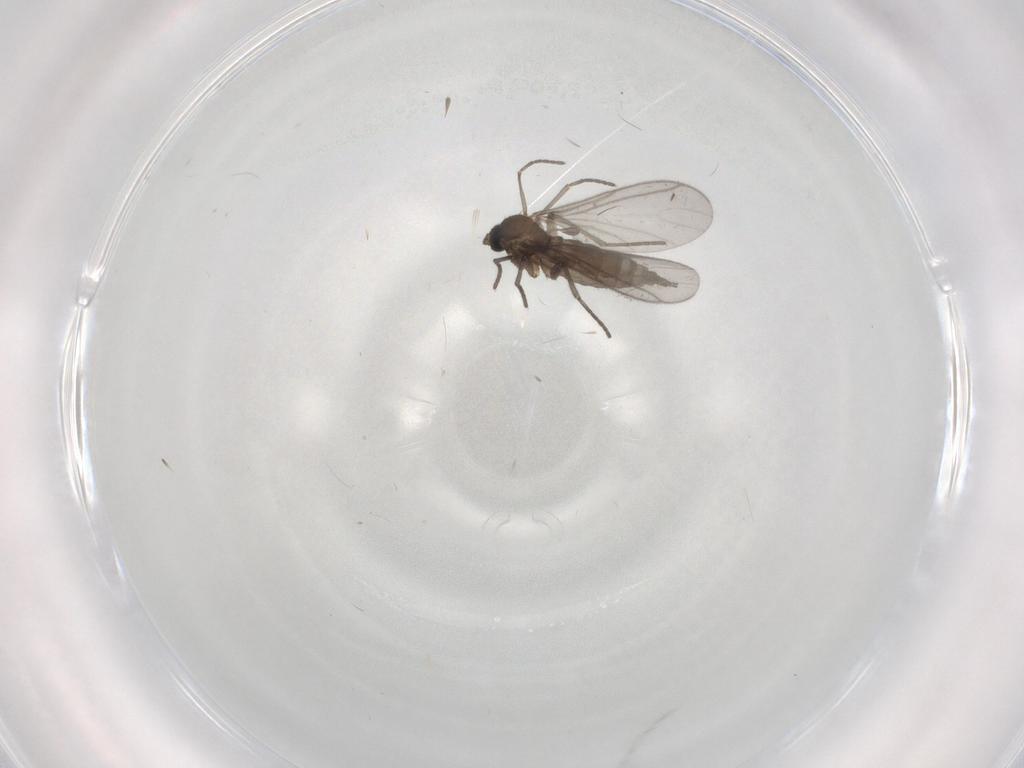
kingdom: Animalia
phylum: Arthropoda
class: Insecta
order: Diptera
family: Sciaridae
